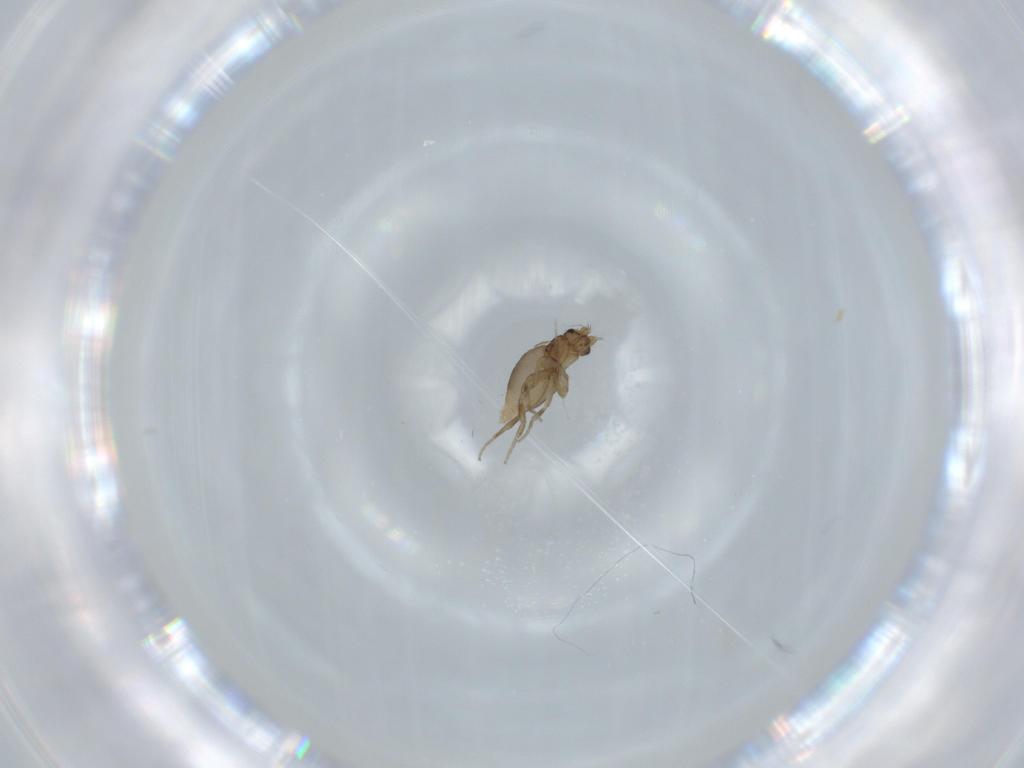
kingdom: Animalia
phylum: Arthropoda
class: Insecta
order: Diptera
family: Phoridae
